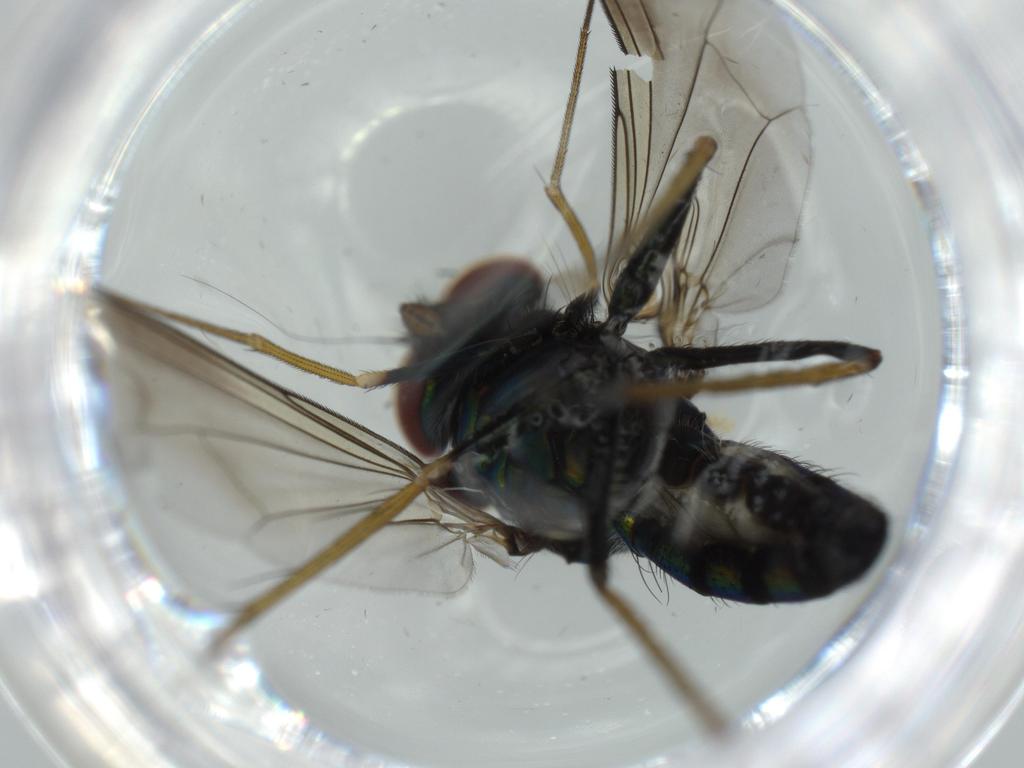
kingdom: Animalia
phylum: Arthropoda
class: Insecta
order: Diptera
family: Dolichopodidae
